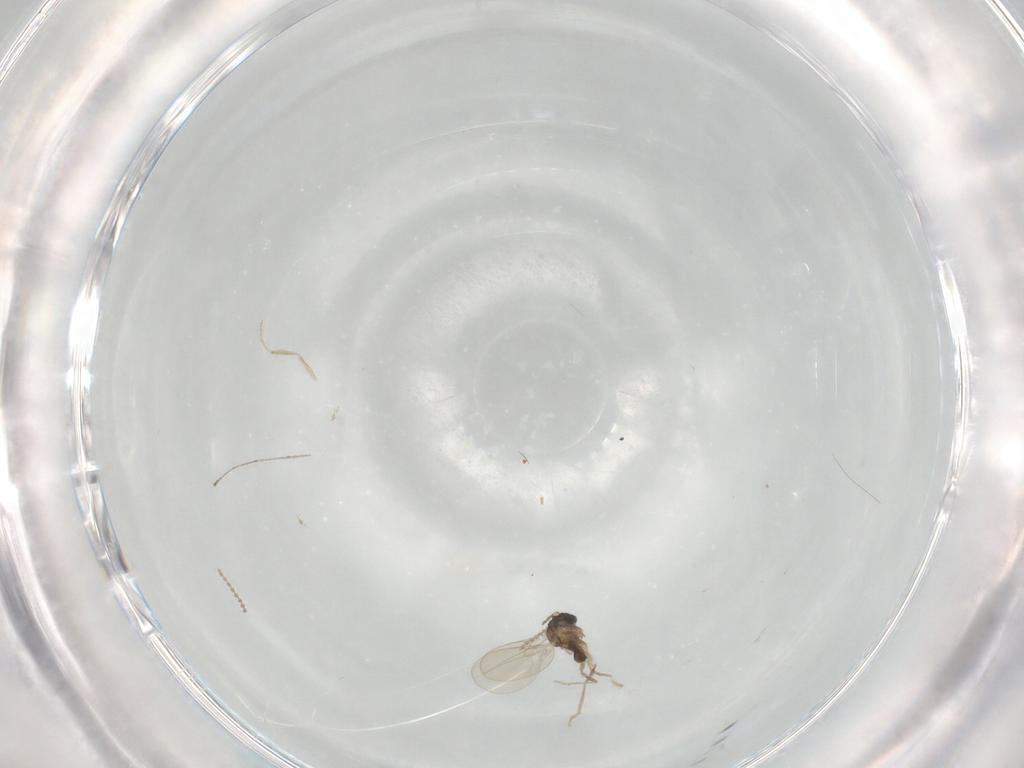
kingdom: Animalia
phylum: Arthropoda
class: Insecta
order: Diptera
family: Cecidomyiidae
